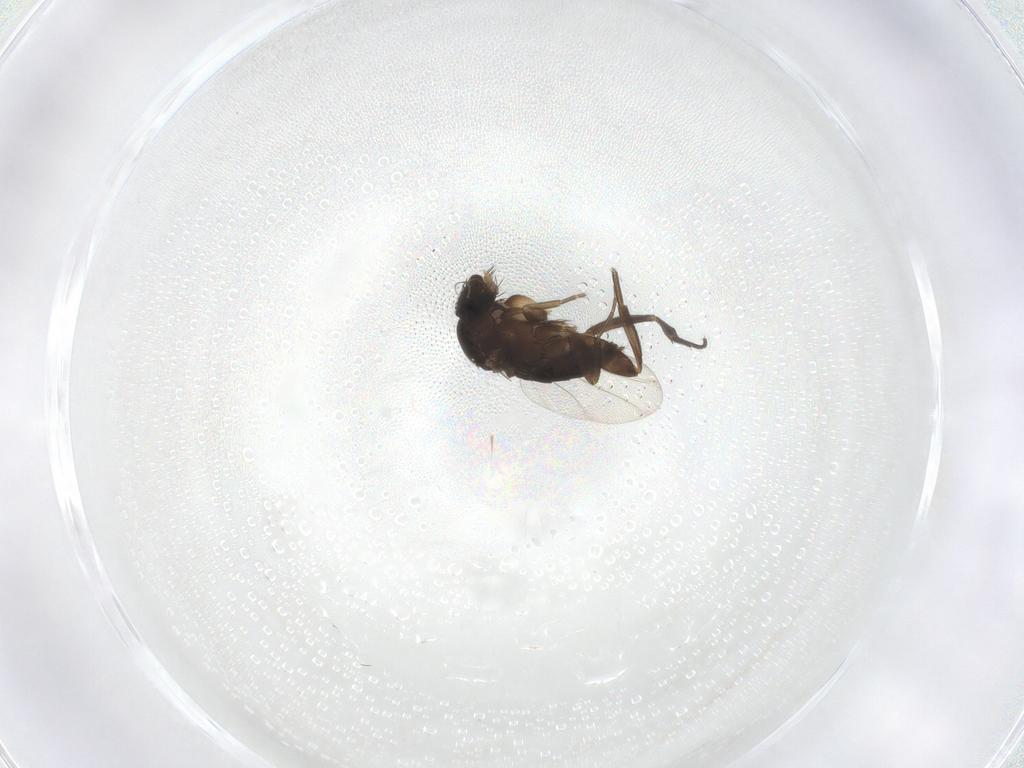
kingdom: Animalia
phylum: Arthropoda
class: Insecta
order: Diptera
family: Phoridae
